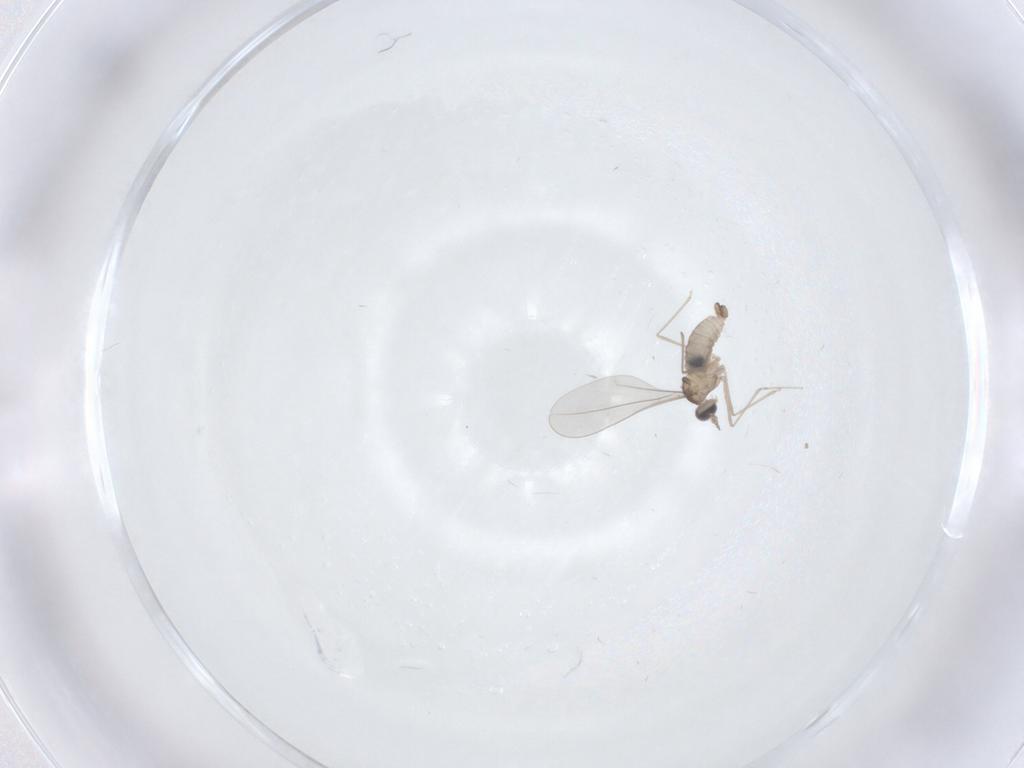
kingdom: Animalia
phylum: Arthropoda
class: Insecta
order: Diptera
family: Cecidomyiidae
